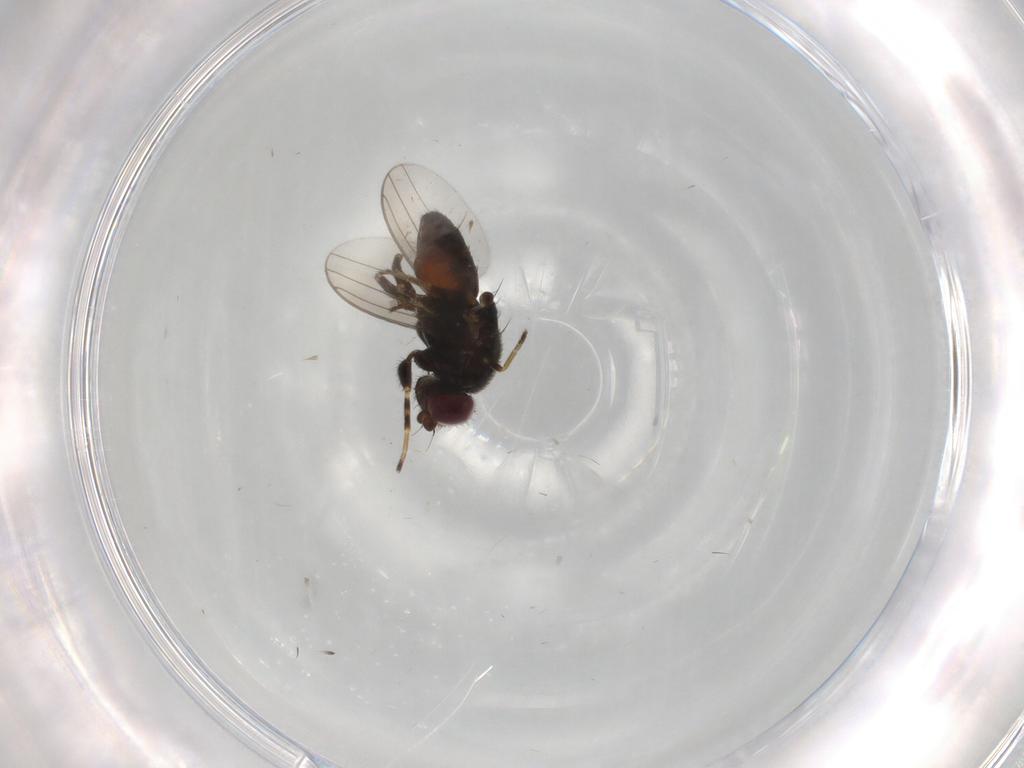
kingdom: Animalia
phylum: Arthropoda
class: Insecta
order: Diptera
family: Chloropidae
